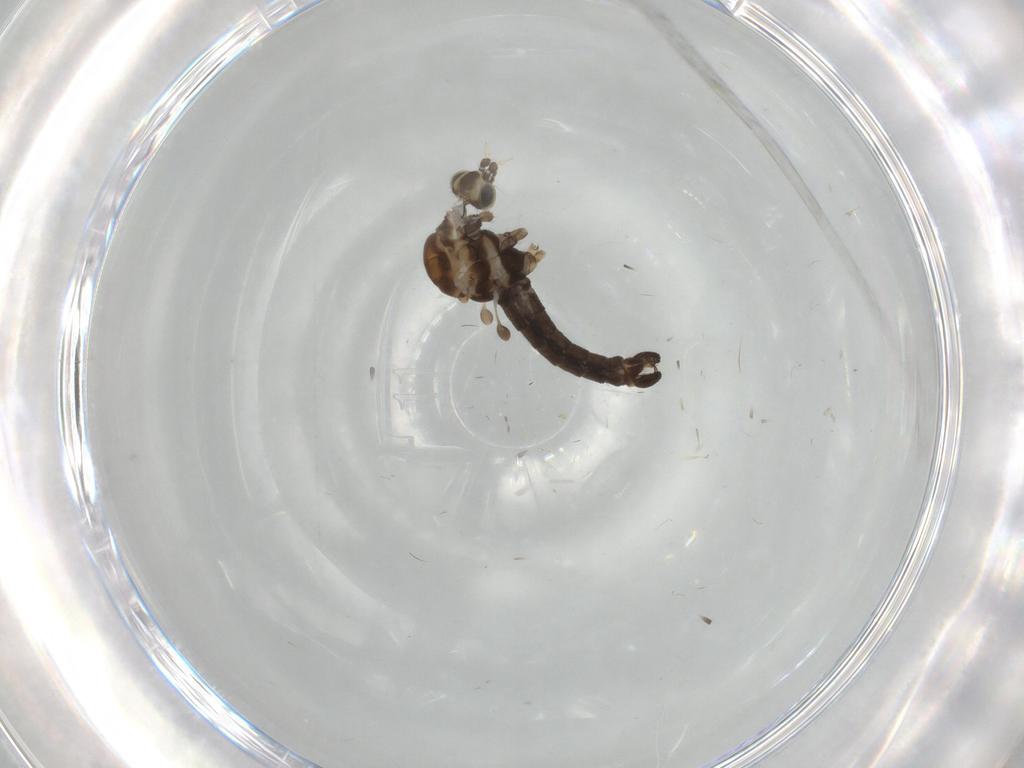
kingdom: Animalia
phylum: Arthropoda
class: Insecta
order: Diptera
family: Chloropidae
